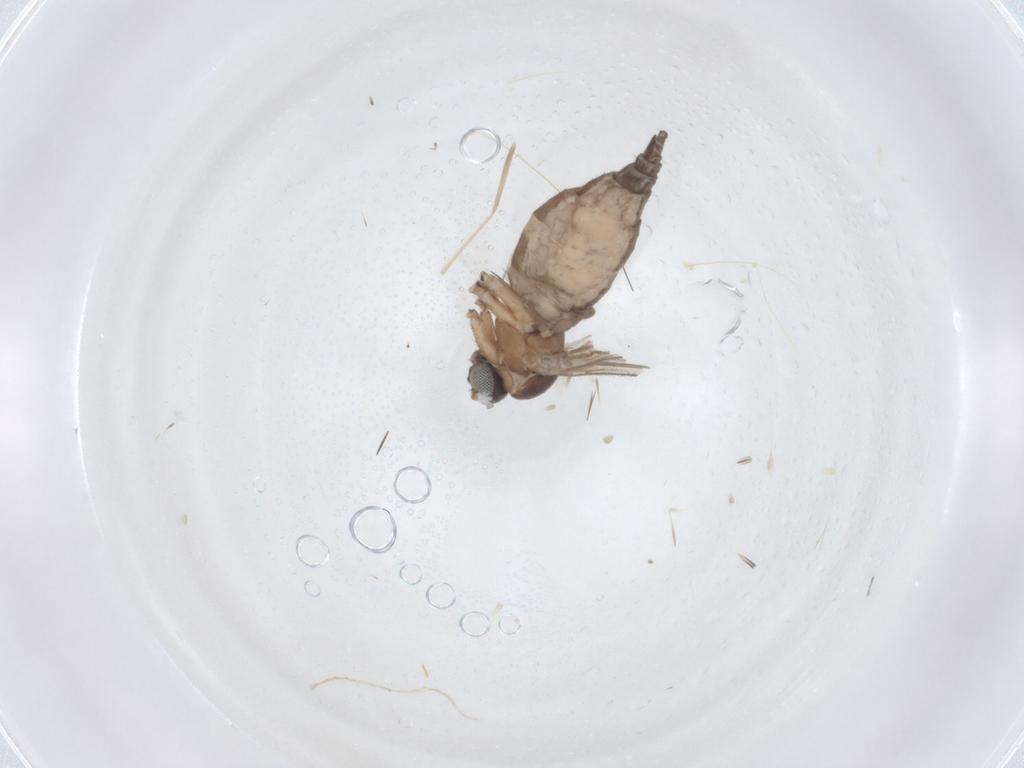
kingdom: Animalia
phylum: Arthropoda
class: Insecta
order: Diptera
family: Sciaridae
